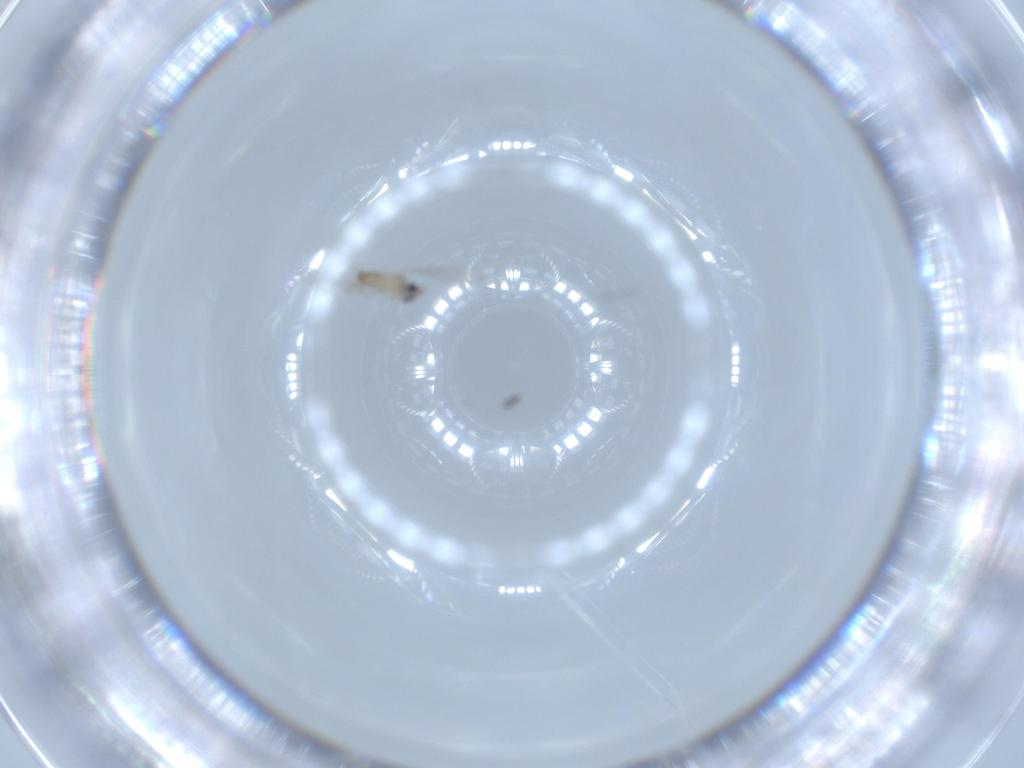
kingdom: Animalia
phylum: Arthropoda
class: Insecta
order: Diptera
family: Cecidomyiidae
